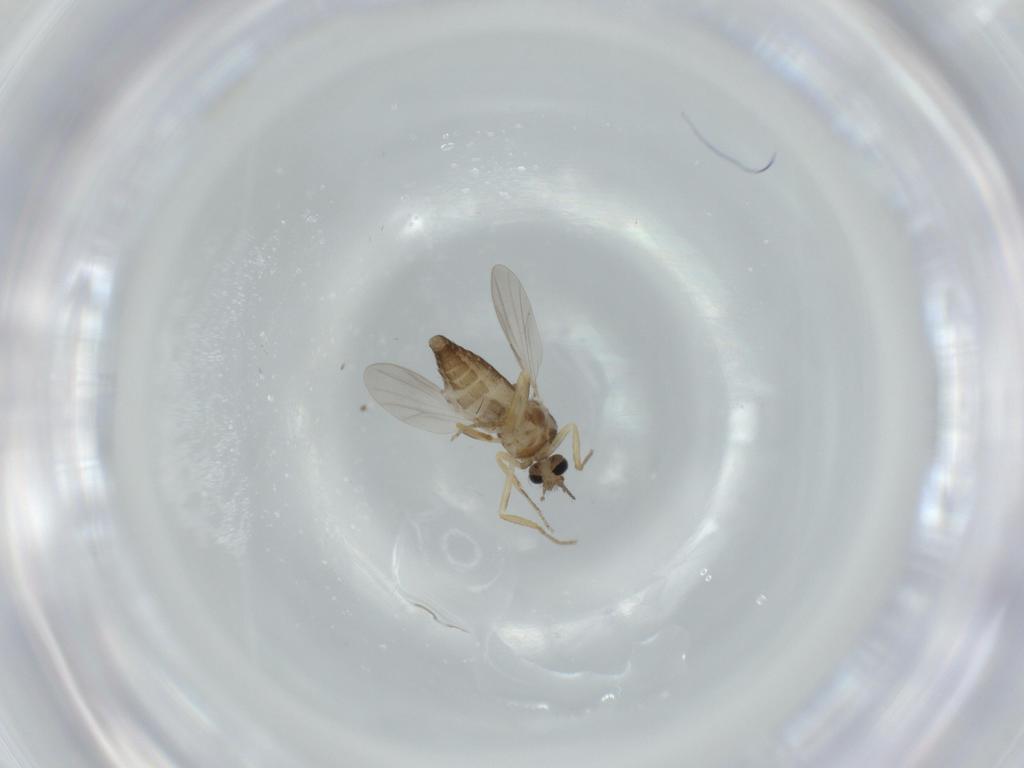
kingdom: Animalia
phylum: Arthropoda
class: Insecta
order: Diptera
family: Ceratopogonidae
